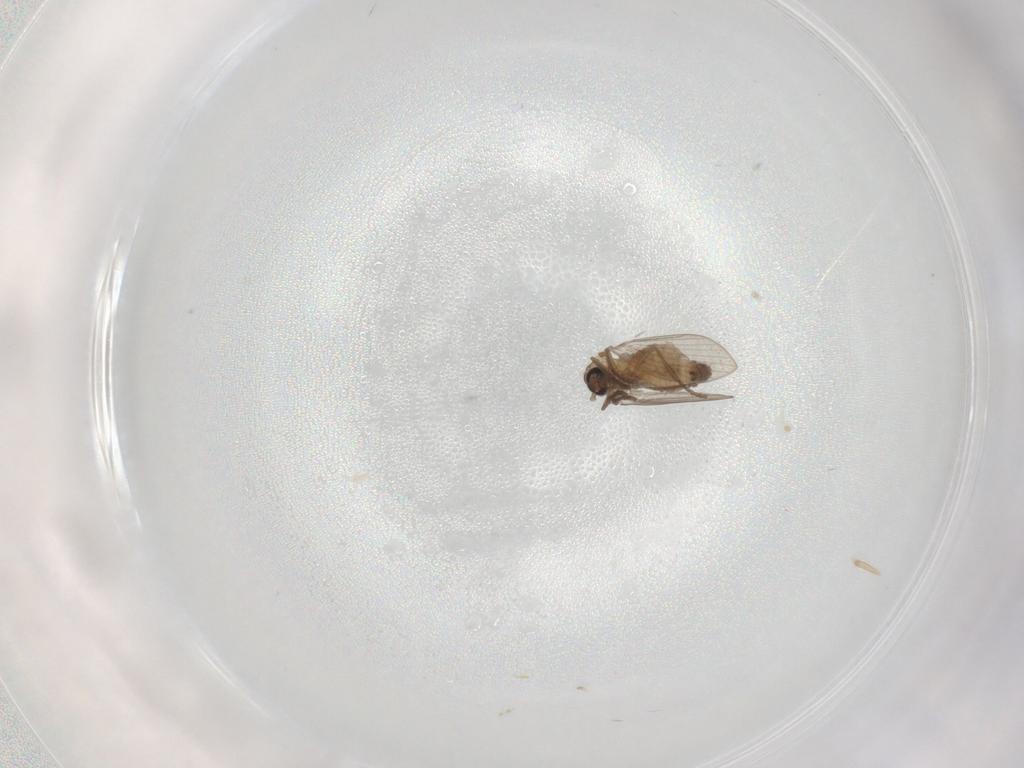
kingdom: Animalia
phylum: Arthropoda
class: Insecta
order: Diptera
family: Psychodidae
